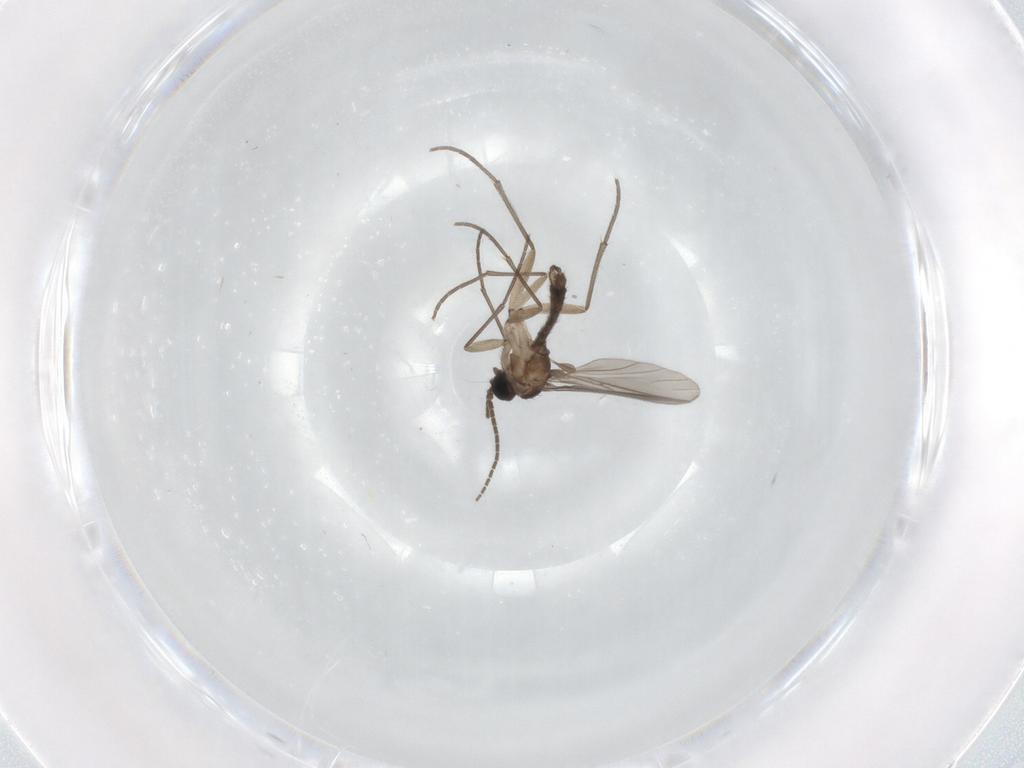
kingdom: Animalia
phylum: Arthropoda
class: Insecta
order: Diptera
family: Sciaridae
